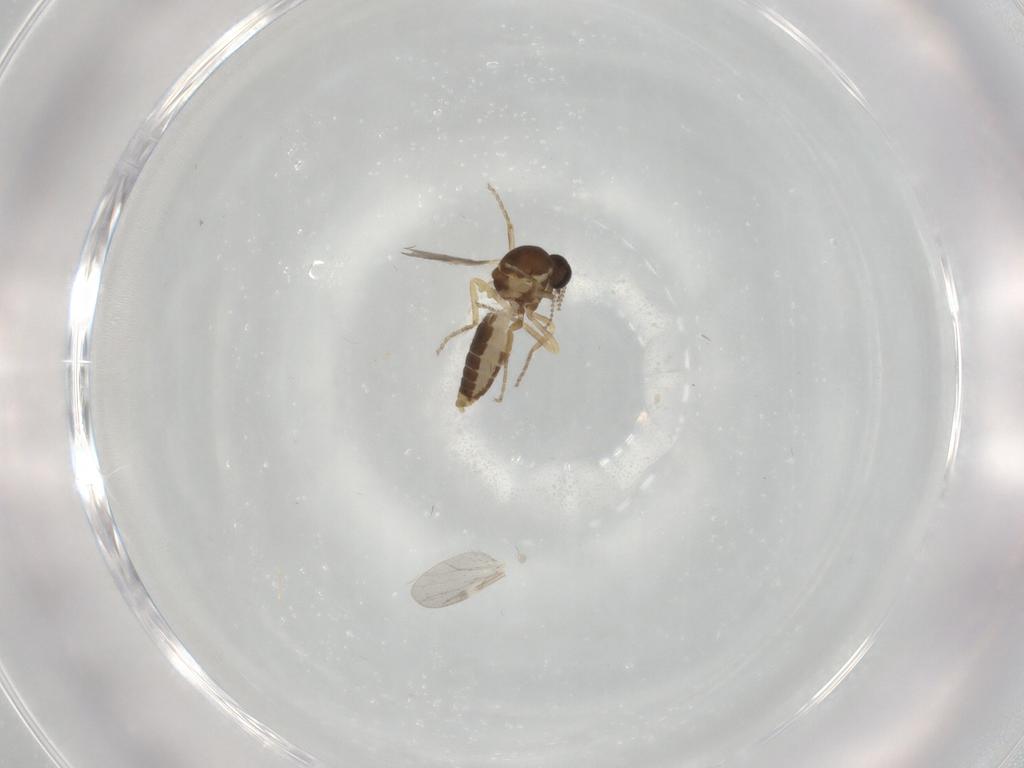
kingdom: Animalia
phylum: Arthropoda
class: Insecta
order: Diptera
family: Ceratopogonidae
